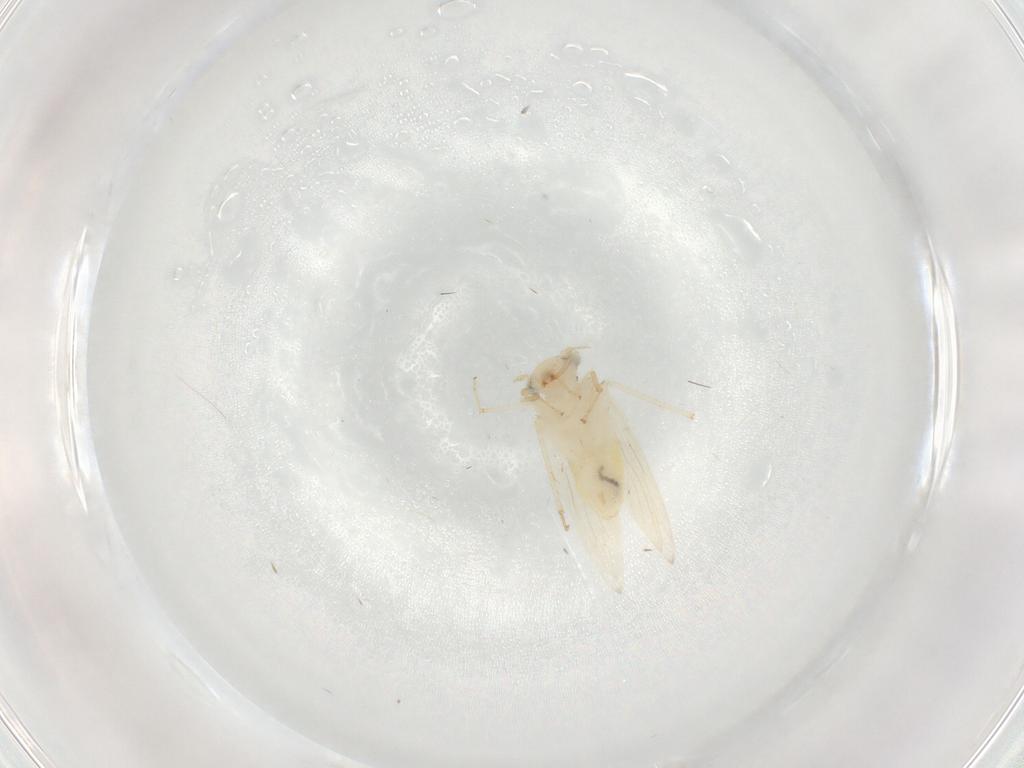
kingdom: Animalia
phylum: Arthropoda
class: Insecta
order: Psocodea
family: Lepidopsocidae
